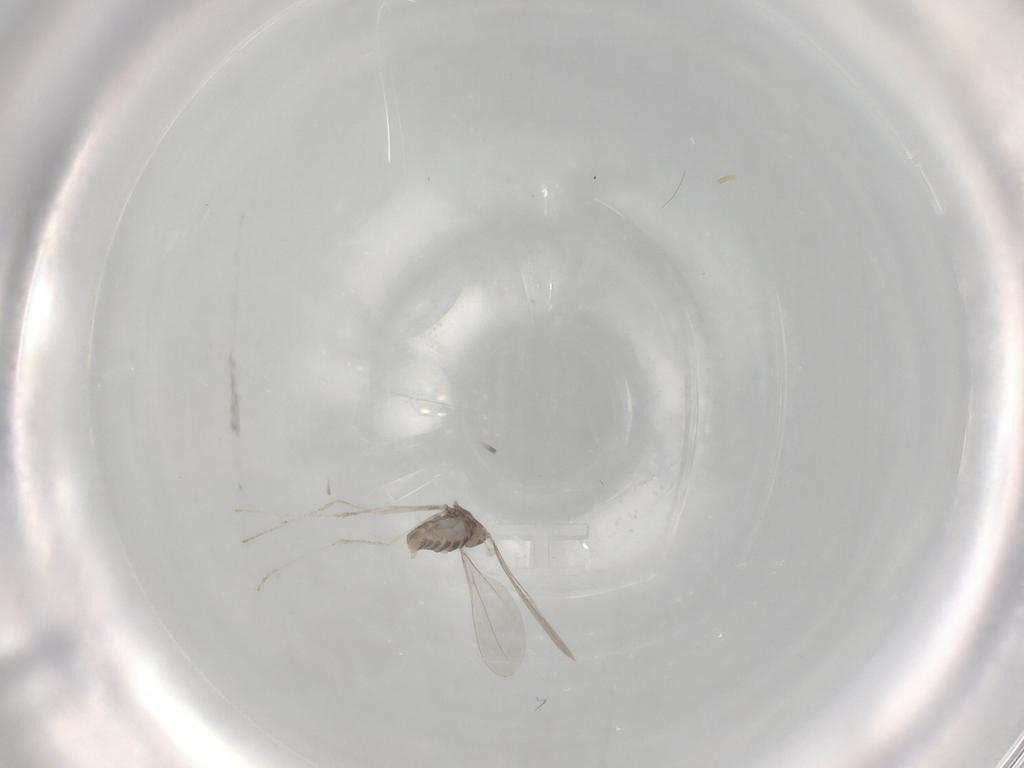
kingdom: Animalia
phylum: Arthropoda
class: Insecta
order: Diptera
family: Cecidomyiidae
